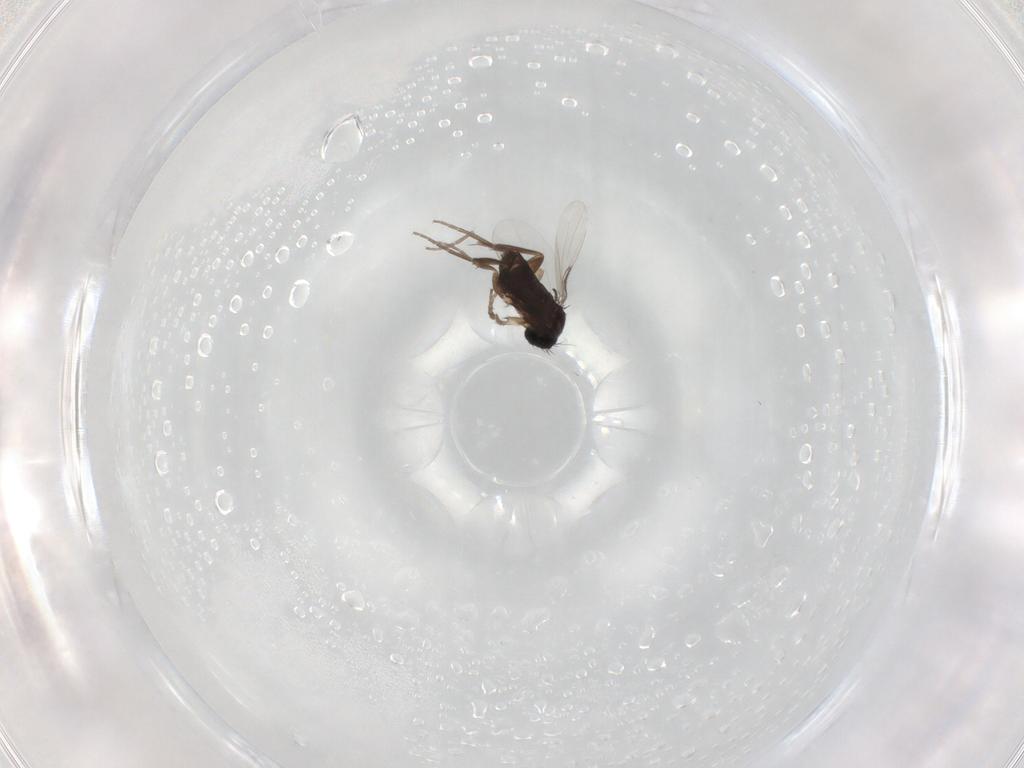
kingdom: Animalia
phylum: Arthropoda
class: Insecta
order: Diptera
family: Phoridae
